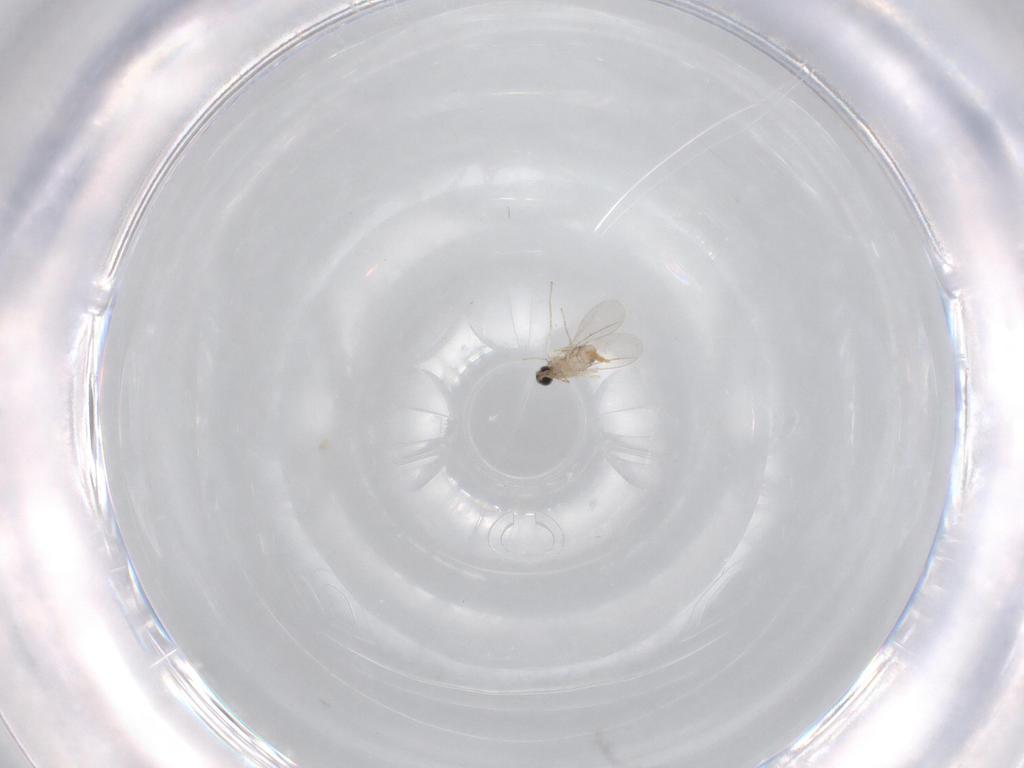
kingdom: Animalia
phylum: Arthropoda
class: Insecta
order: Diptera
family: Cecidomyiidae
